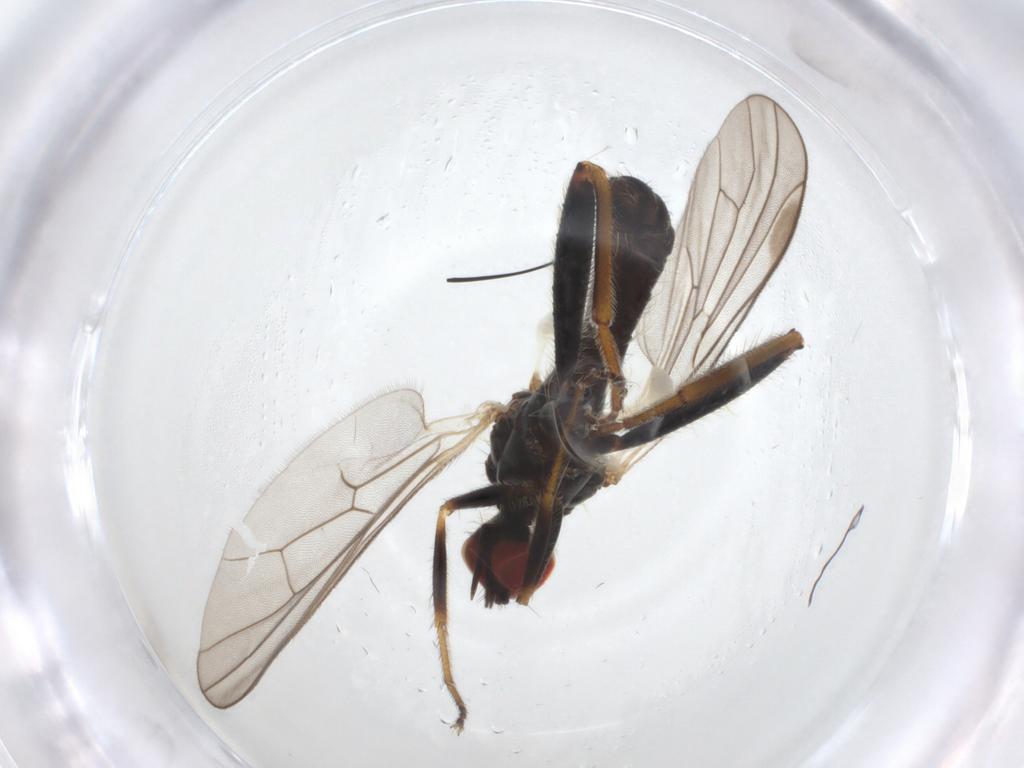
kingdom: Animalia
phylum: Arthropoda
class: Insecta
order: Diptera
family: Hybotidae
